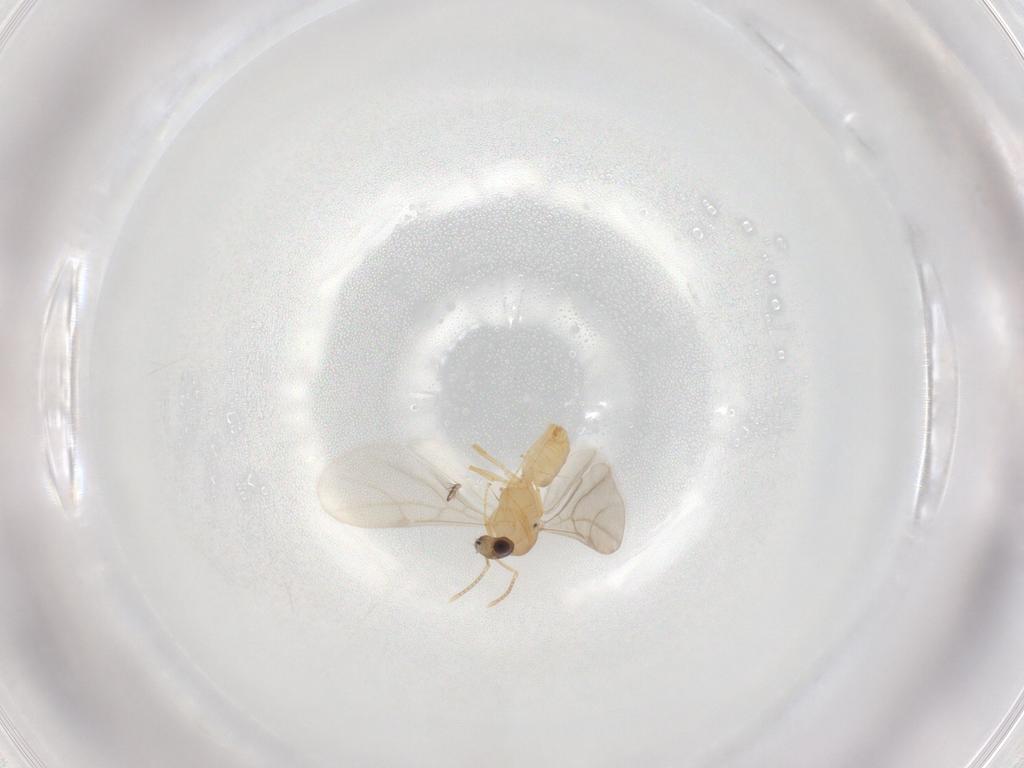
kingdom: Animalia
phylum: Arthropoda
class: Insecta
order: Hymenoptera
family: Formicidae
